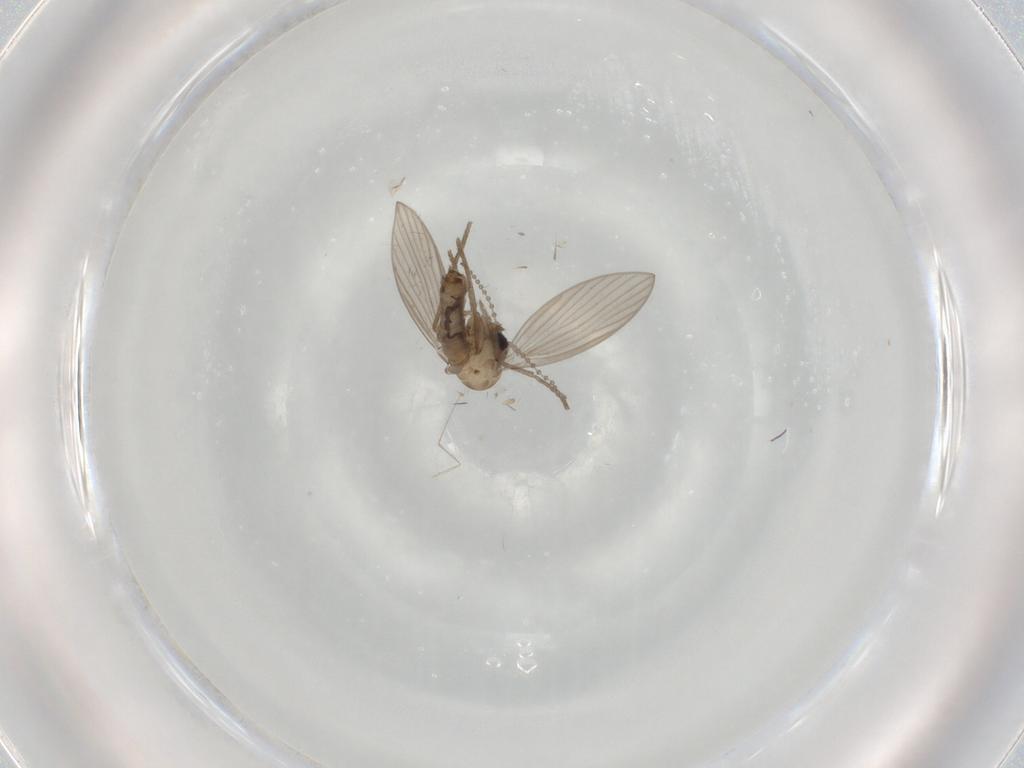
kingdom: Animalia
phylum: Arthropoda
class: Insecta
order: Diptera
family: Psychodidae
